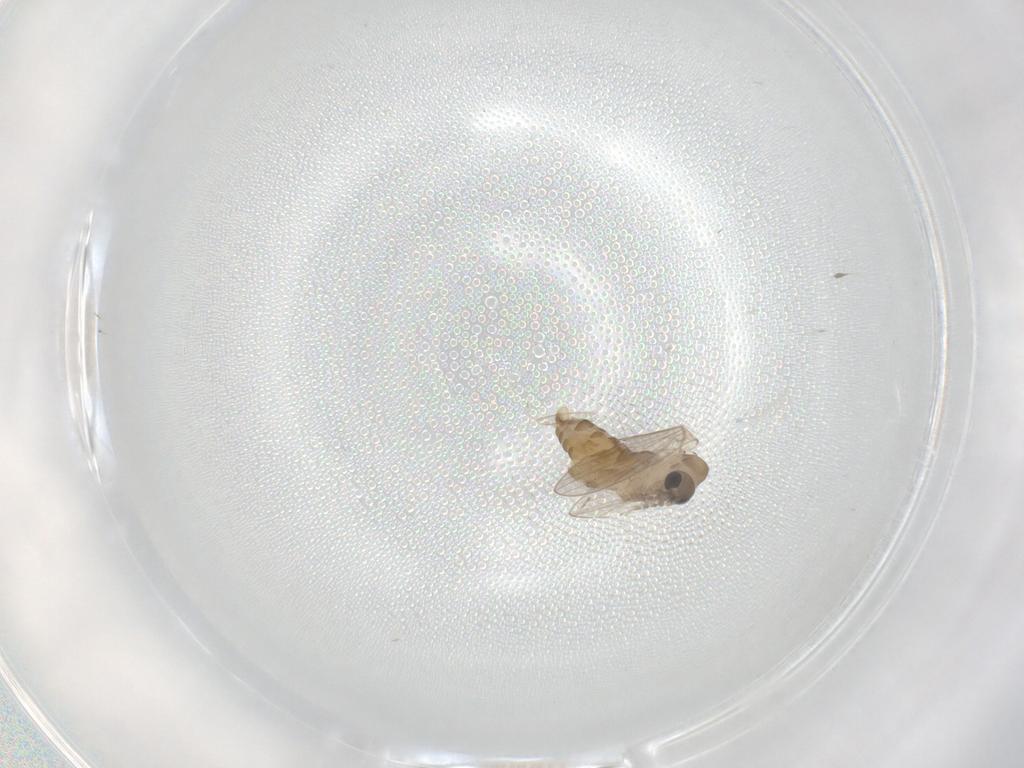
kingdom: Animalia
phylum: Arthropoda
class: Insecta
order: Diptera
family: Psychodidae
